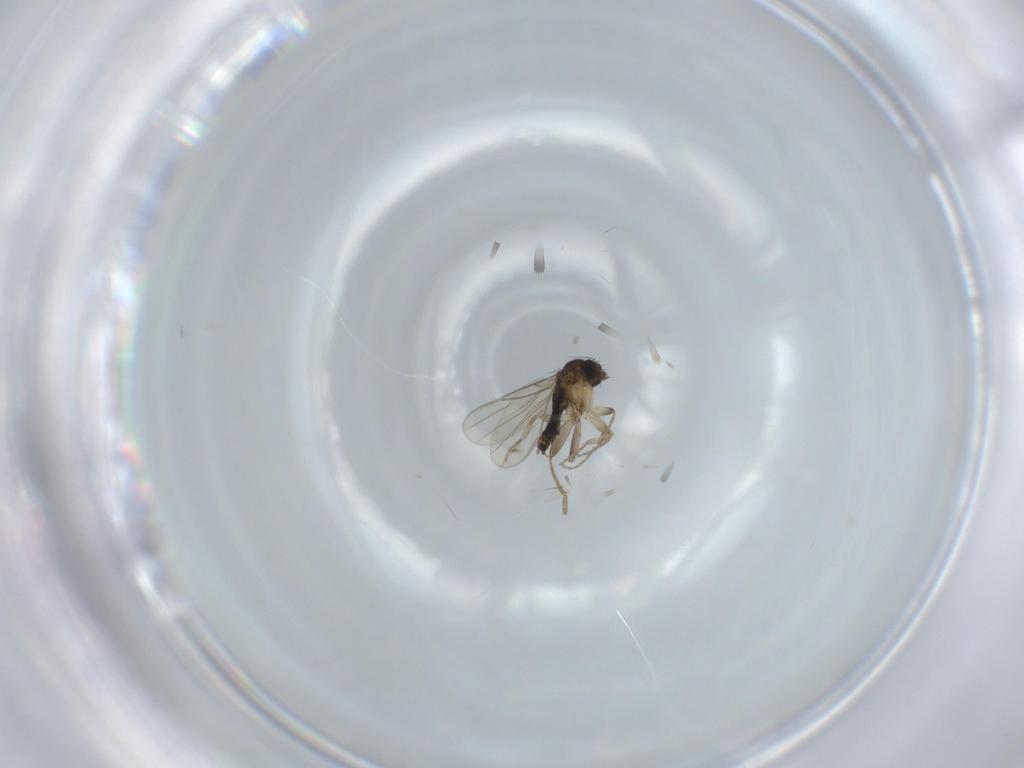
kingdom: Animalia
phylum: Arthropoda
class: Insecta
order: Diptera
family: Phoridae
